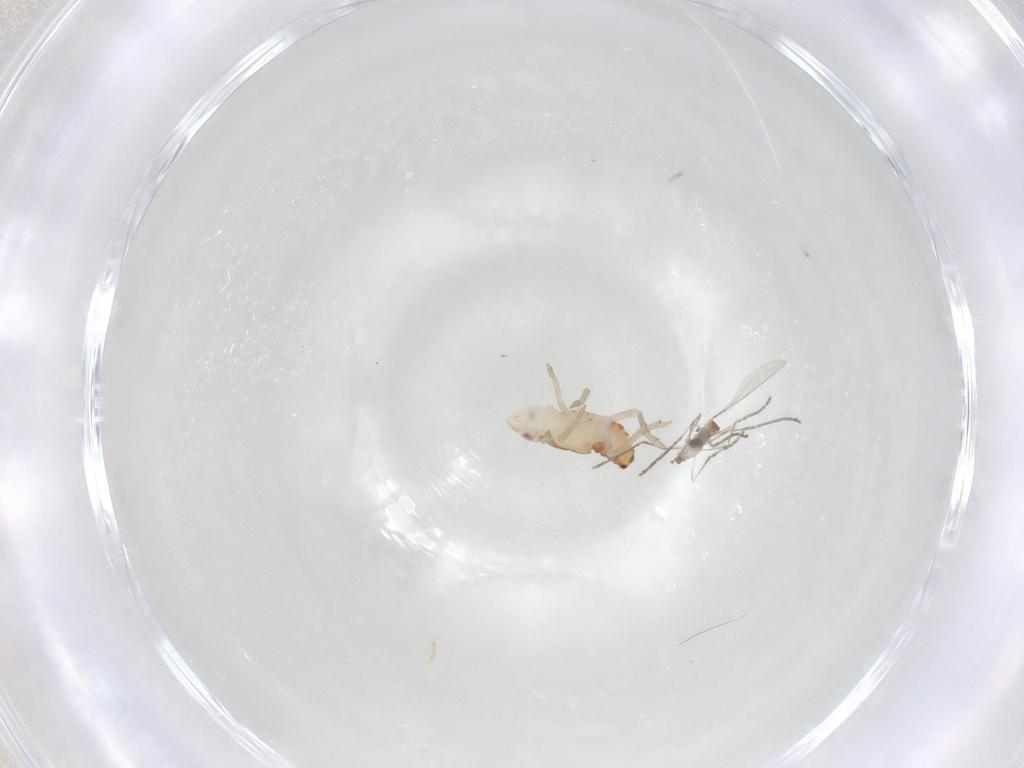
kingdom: Animalia
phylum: Arthropoda
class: Insecta
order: Diptera
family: Cecidomyiidae
